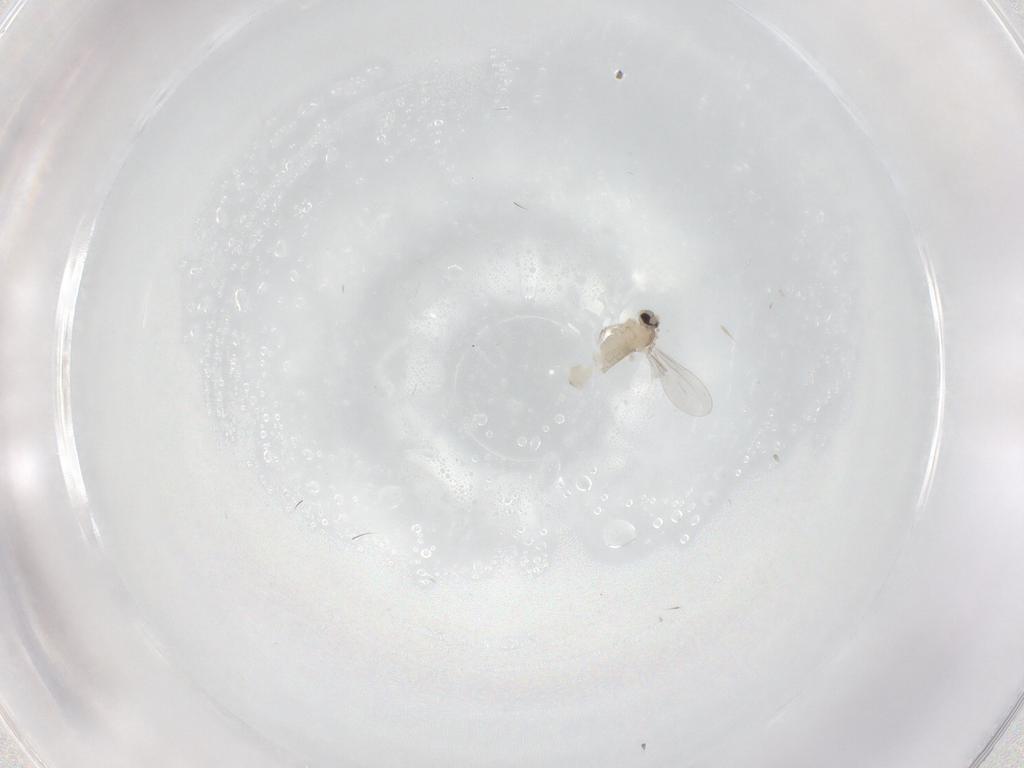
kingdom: Animalia
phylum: Arthropoda
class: Insecta
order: Diptera
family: Cecidomyiidae
